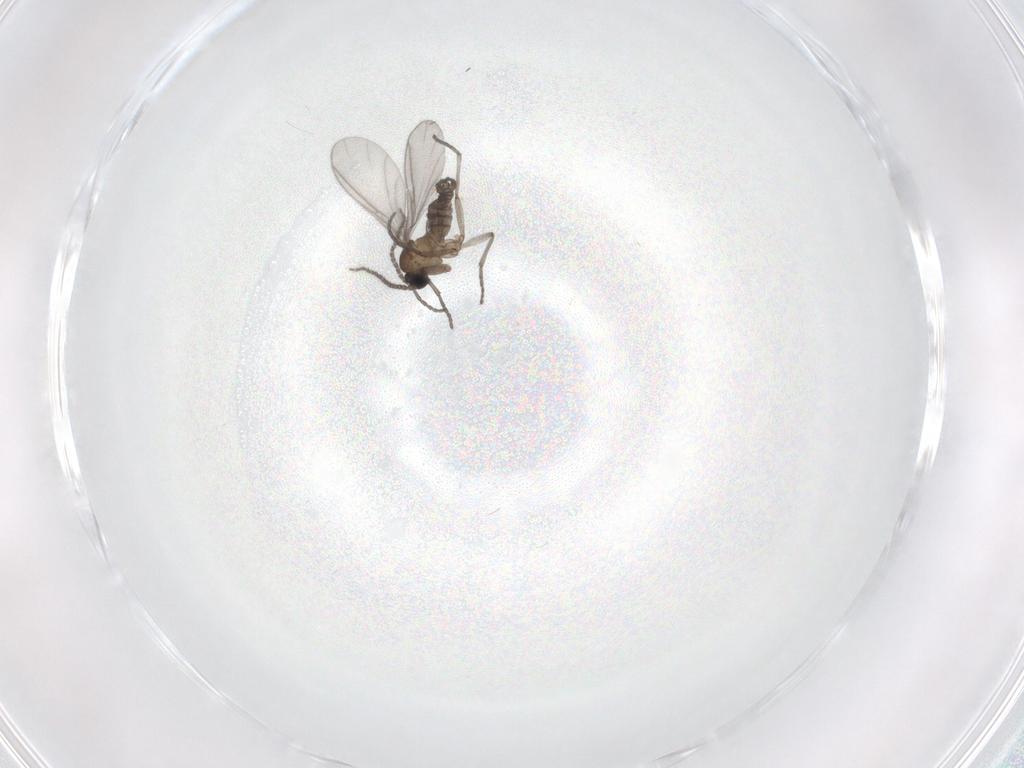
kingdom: Animalia
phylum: Arthropoda
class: Insecta
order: Diptera
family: Sciaridae
